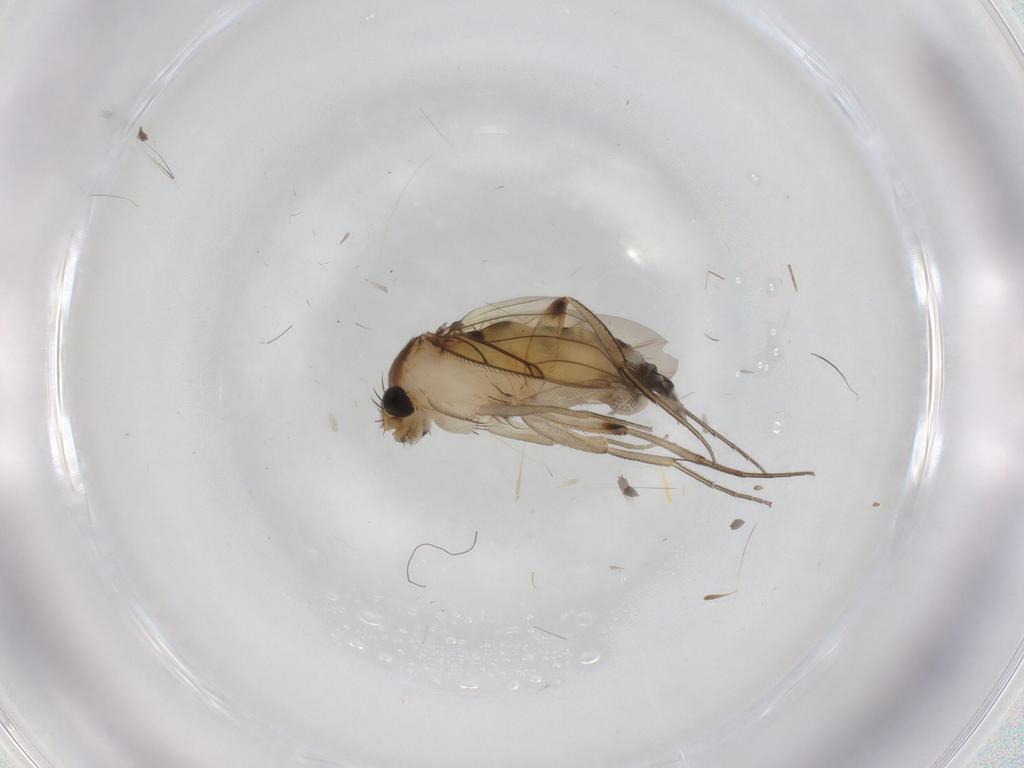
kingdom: Animalia
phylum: Arthropoda
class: Insecta
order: Diptera
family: Phoridae
